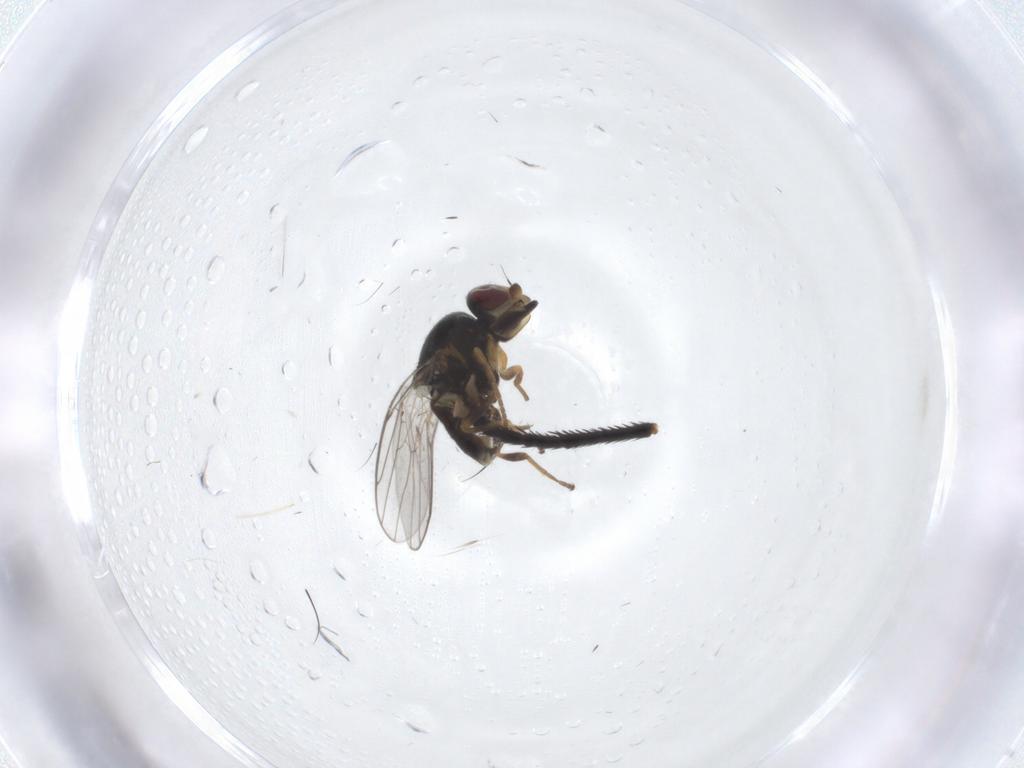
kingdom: Animalia
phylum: Arthropoda
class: Insecta
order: Diptera
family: Chloropidae
